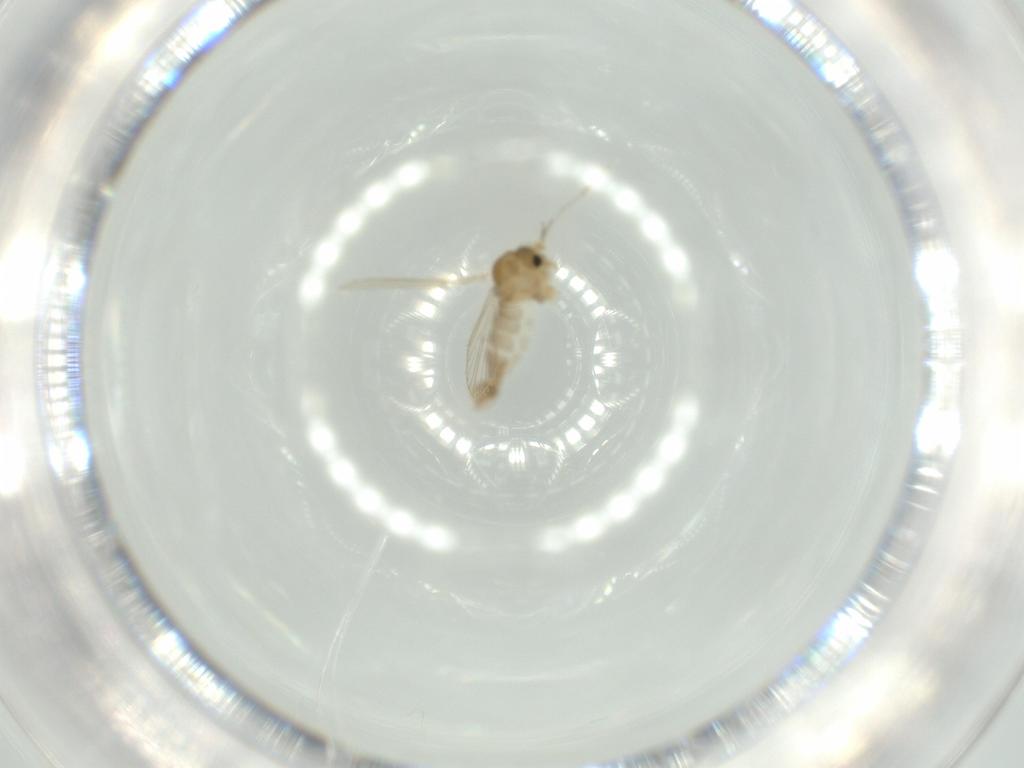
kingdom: Animalia
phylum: Arthropoda
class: Insecta
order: Diptera
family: Psychodidae
